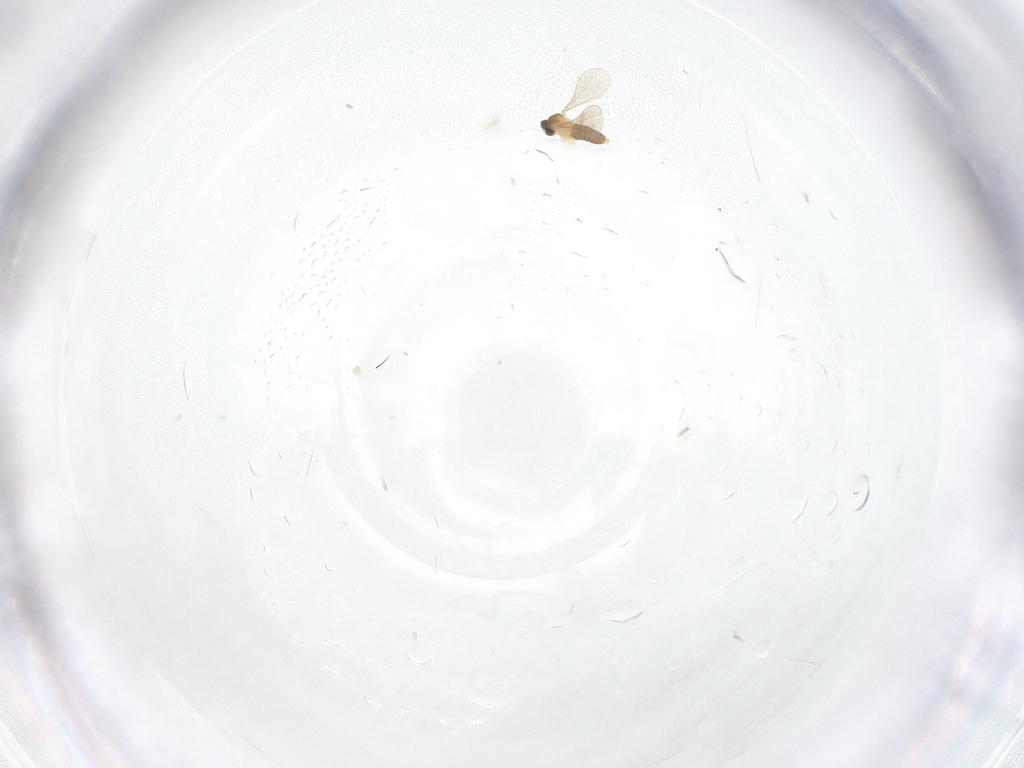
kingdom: Animalia
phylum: Arthropoda
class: Insecta
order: Diptera
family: Cecidomyiidae
